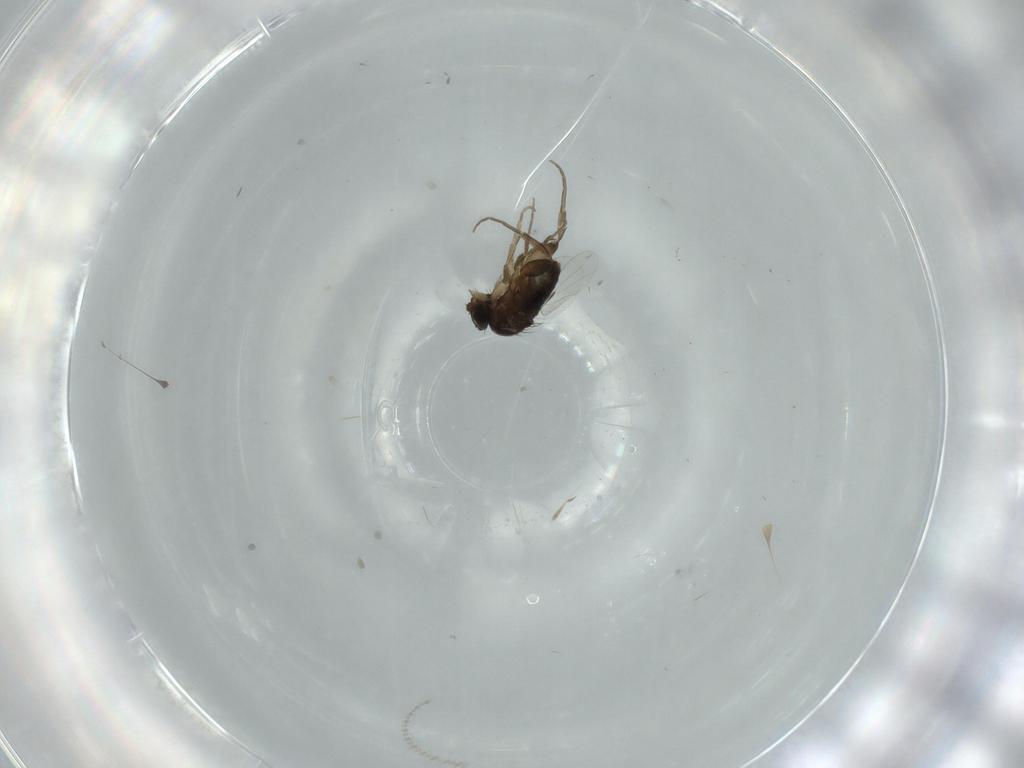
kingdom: Animalia
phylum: Arthropoda
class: Insecta
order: Diptera
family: Phoridae
